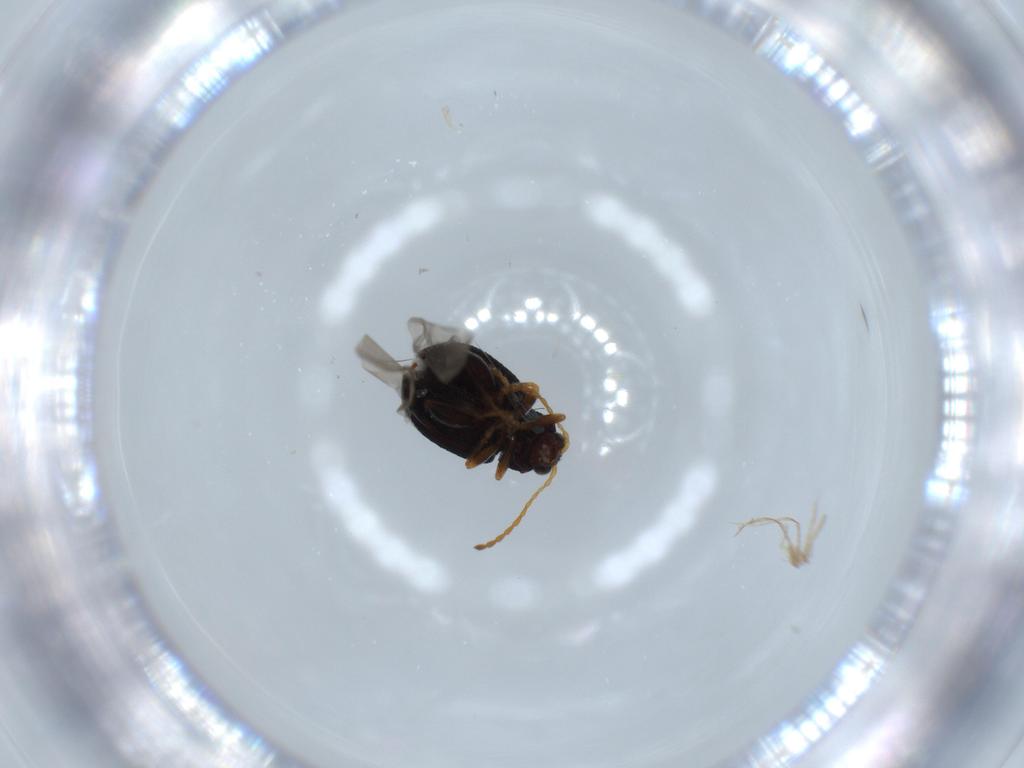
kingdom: Animalia
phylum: Arthropoda
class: Insecta
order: Coleoptera
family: Chrysomelidae
